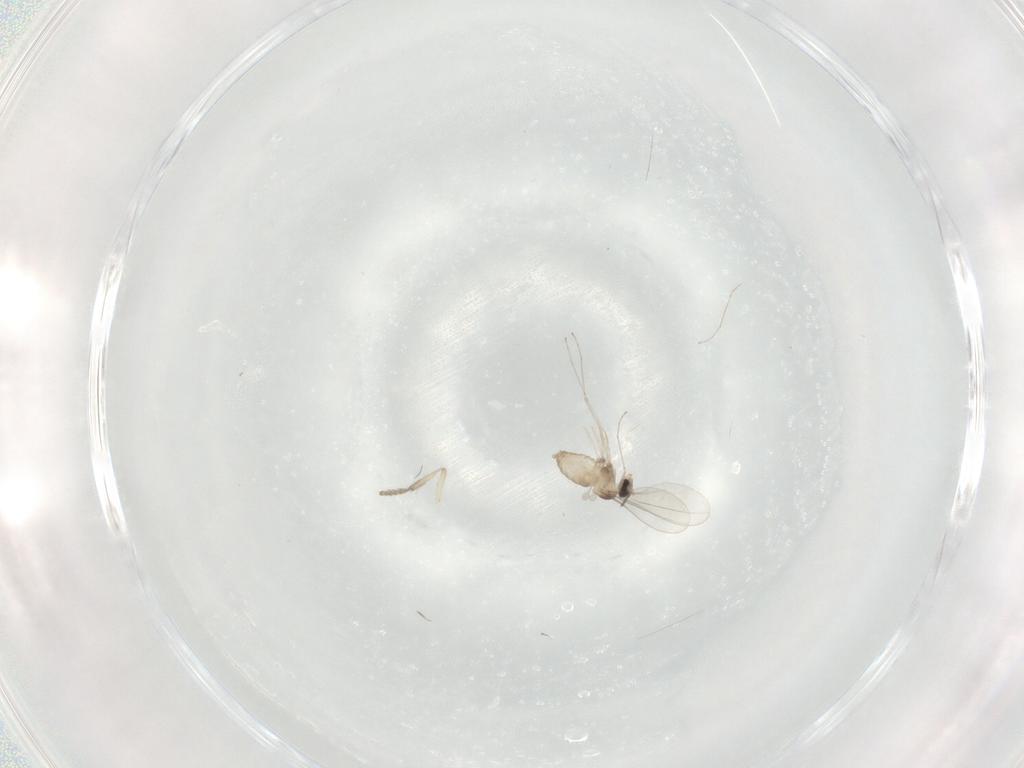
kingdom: Animalia
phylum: Arthropoda
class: Insecta
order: Diptera
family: Cecidomyiidae
